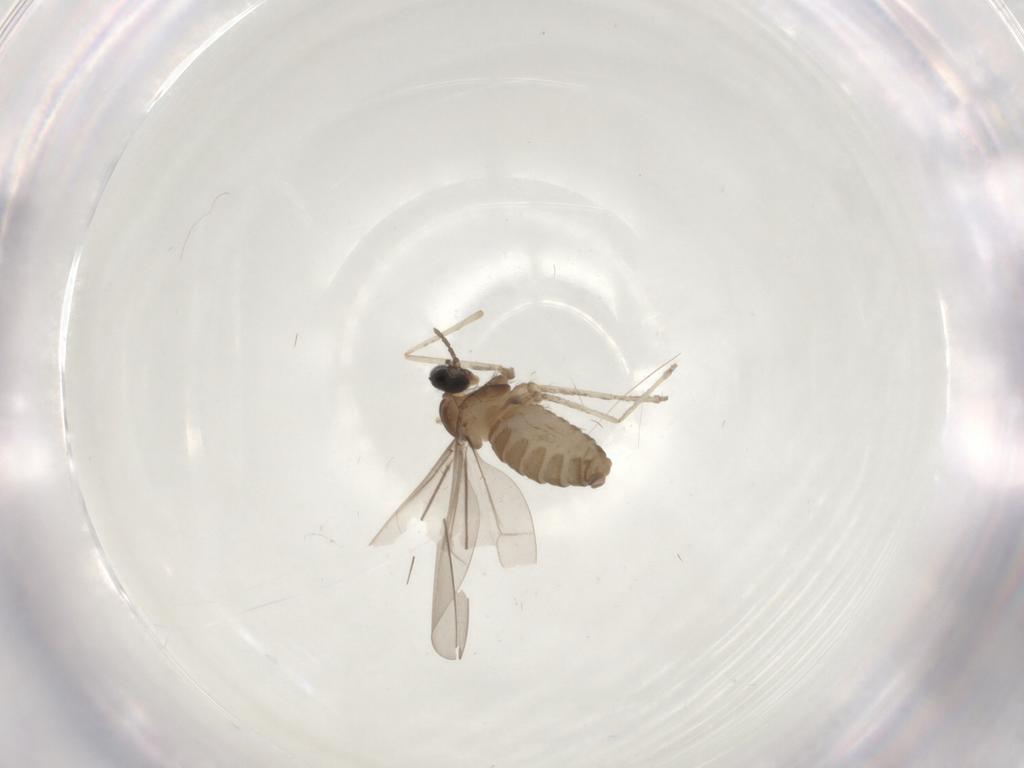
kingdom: Animalia
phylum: Arthropoda
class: Insecta
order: Diptera
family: Cecidomyiidae
